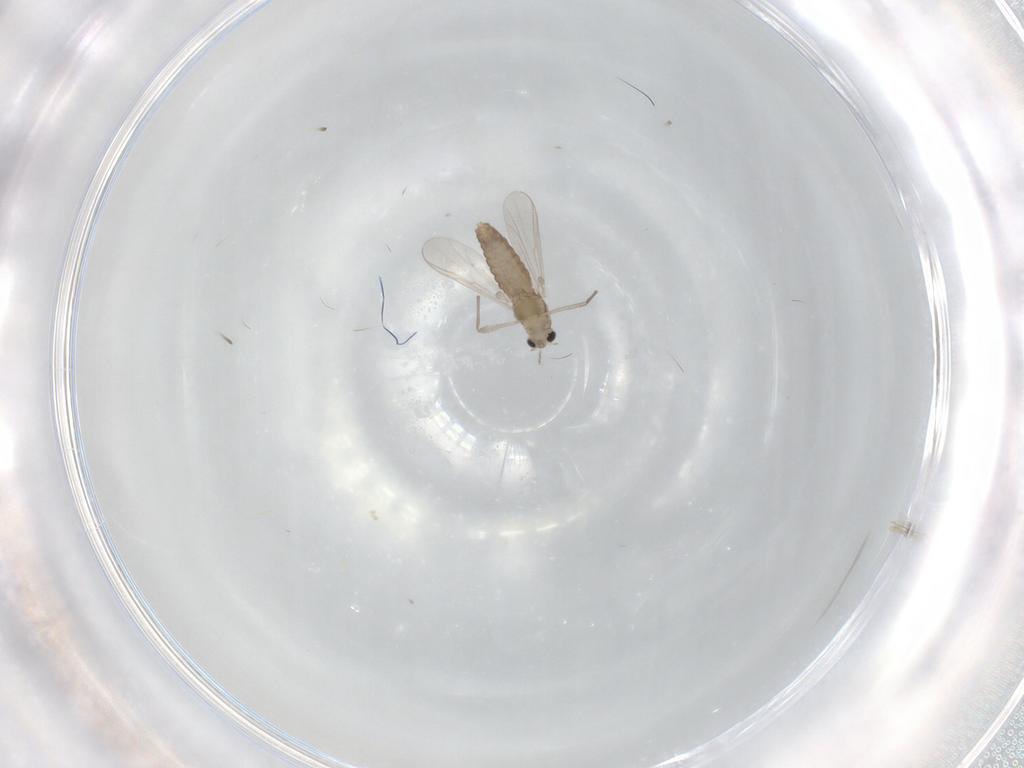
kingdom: Animalia
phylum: Arthropoda
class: Insecta
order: Diptera
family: Chironomidae
